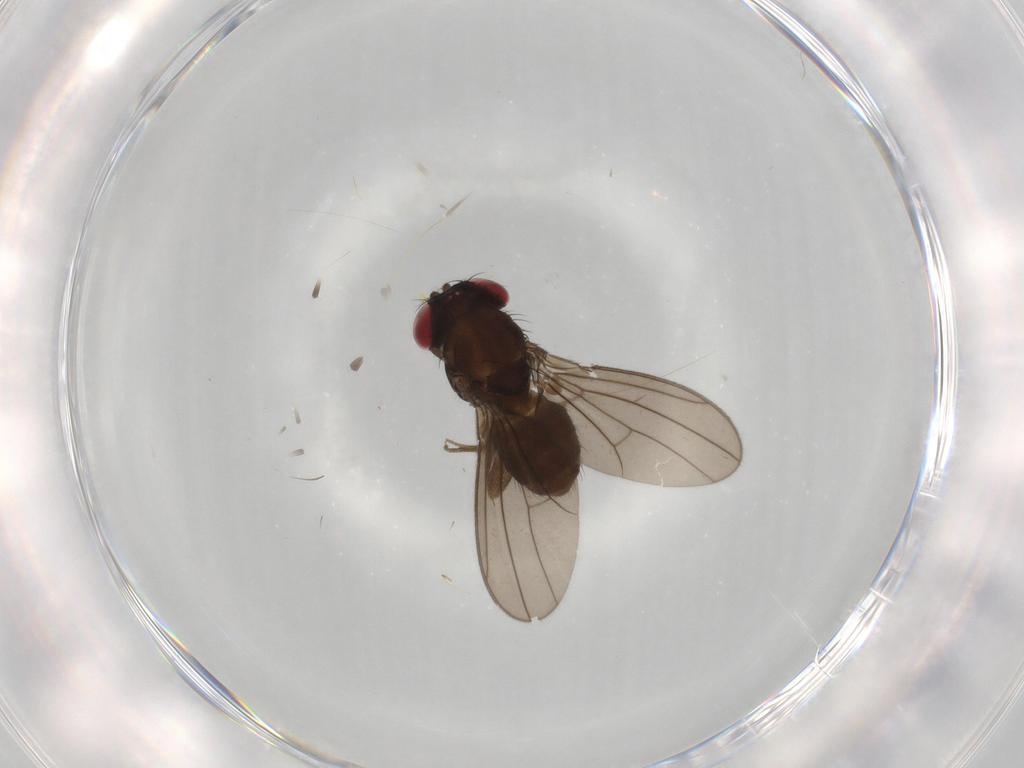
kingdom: Animalia
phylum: Arthropoda
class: Insecta
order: Diptera
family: Drosophilidae
